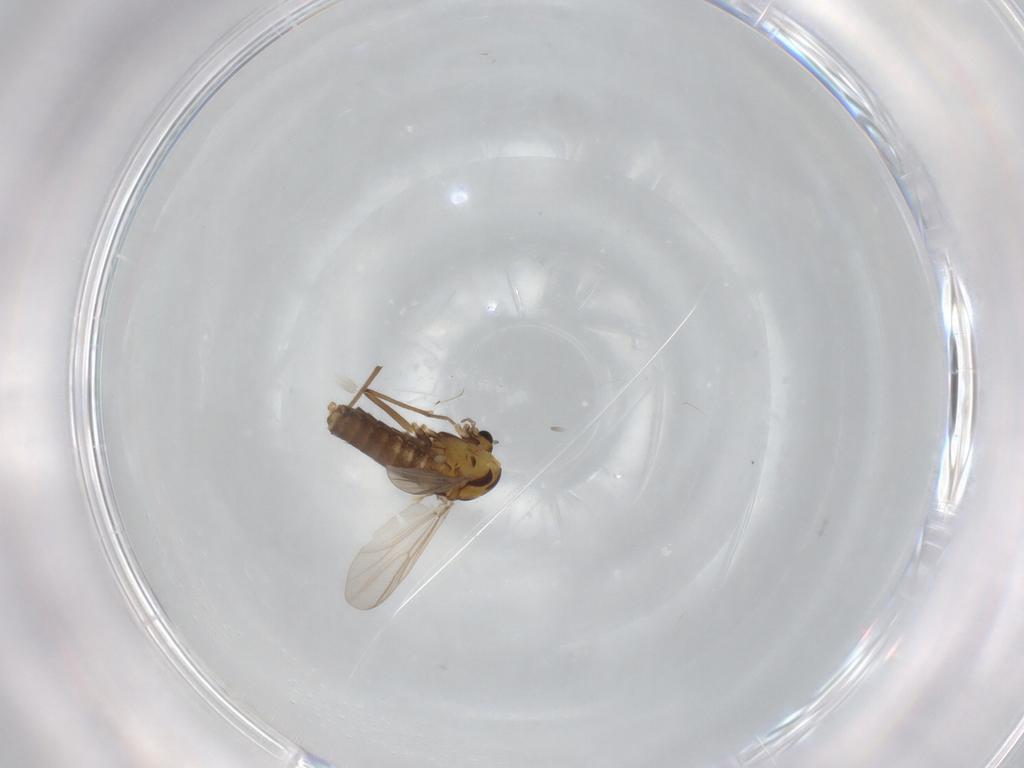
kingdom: Animalia
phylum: Arthropoda
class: Insecta
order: Diptera
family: Chironomidae
